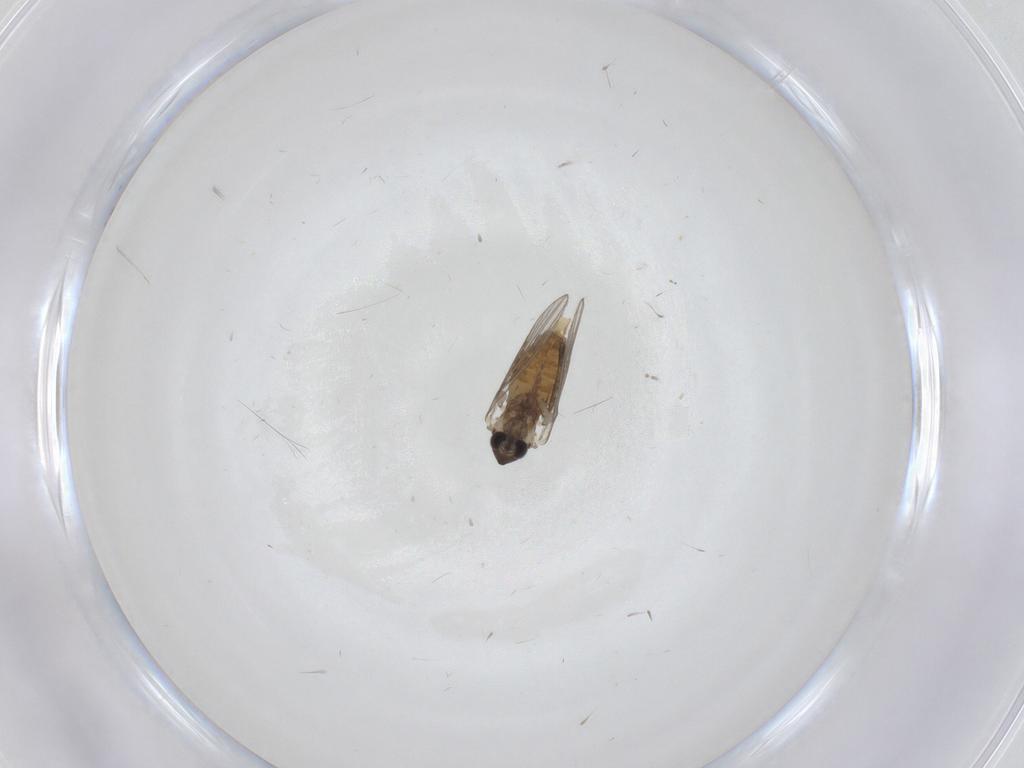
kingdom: Animalia
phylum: Arthropoda
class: Insecta
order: Diptera
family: Psychodidae
